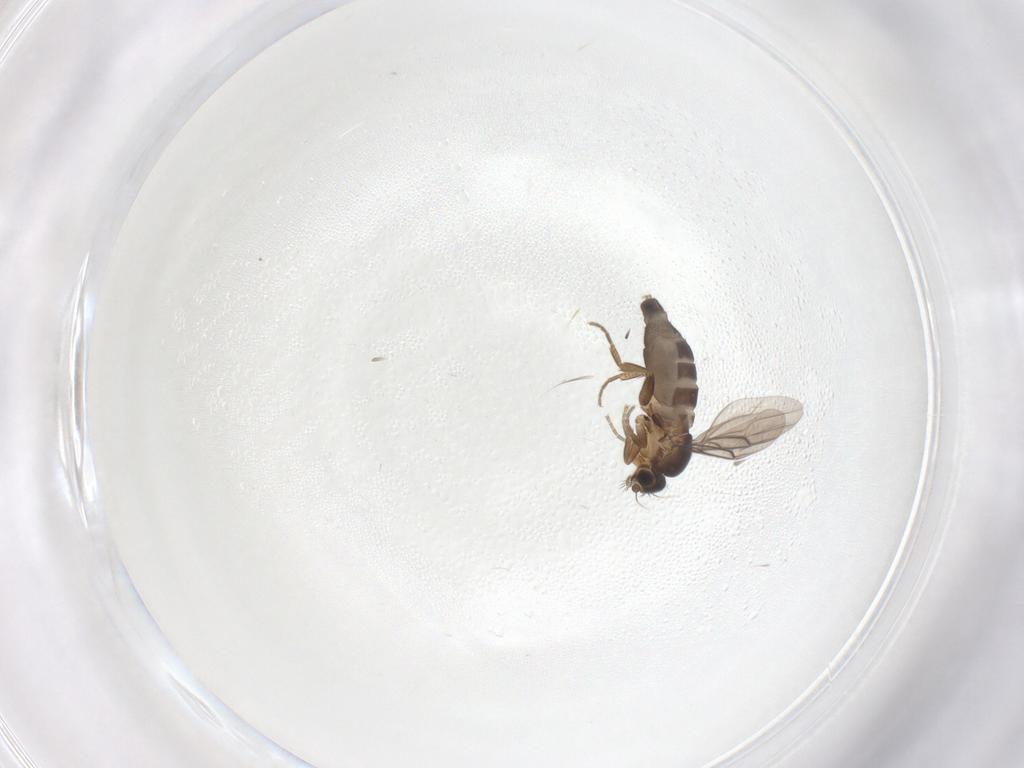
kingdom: Animalia
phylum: Arthropoda
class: Insecta
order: Diptera
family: Phoridae
